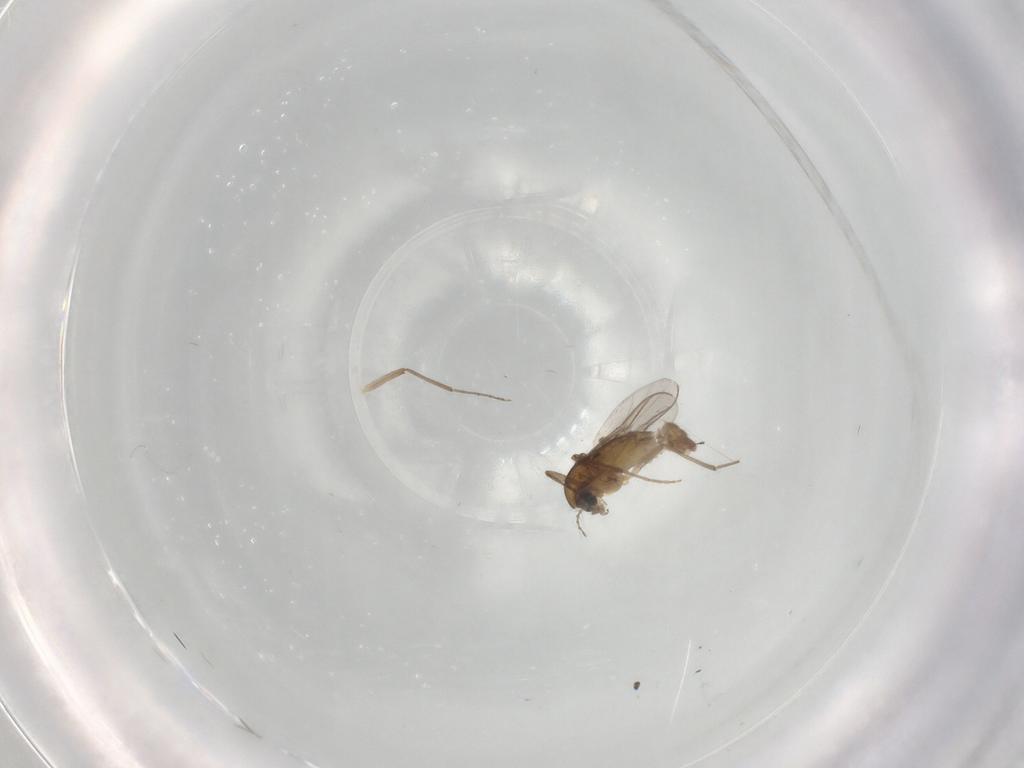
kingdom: Animalia
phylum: Arthropoda
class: Insecta
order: Diptera
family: Chironomidae
